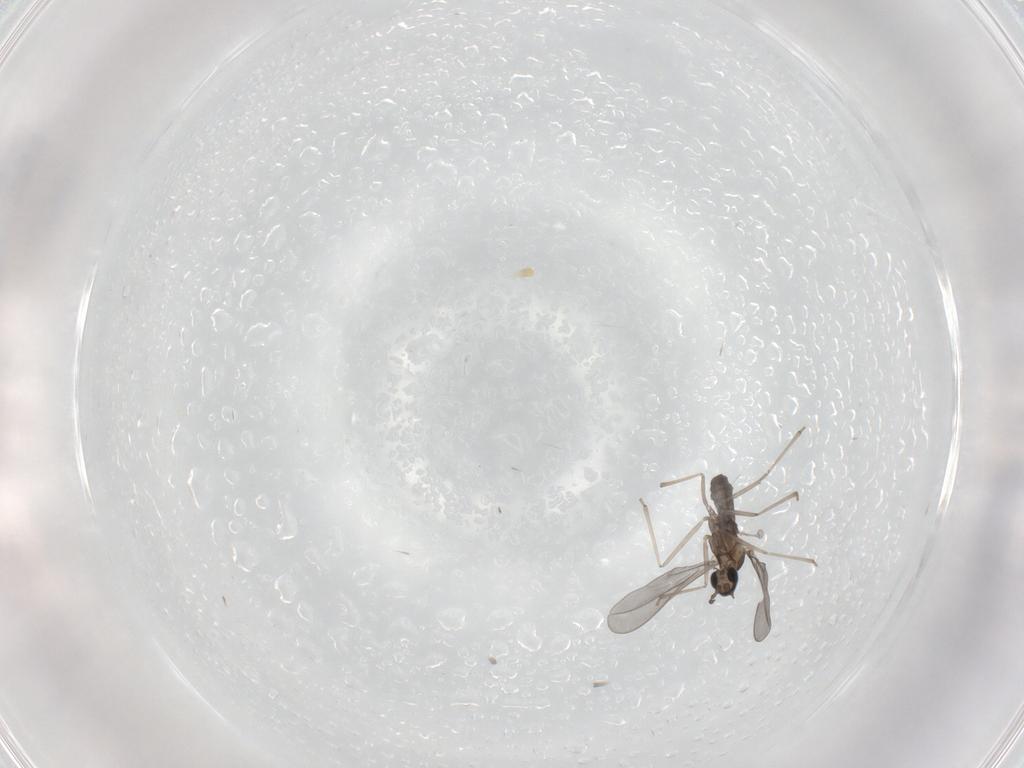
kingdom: Animalia
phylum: Arthropoda
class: Insecta
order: Diptera
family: Cecidomyiidae
